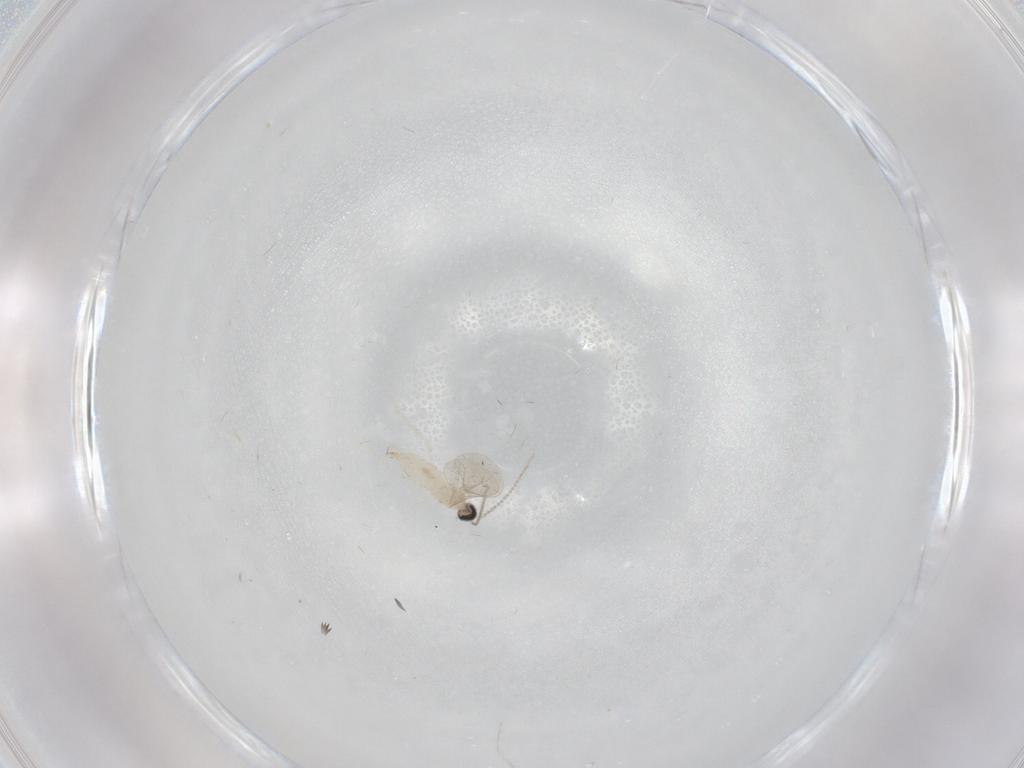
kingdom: Animalia
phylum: Arthropoda
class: Insecta
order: Diptera
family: Cecidomyiidae
